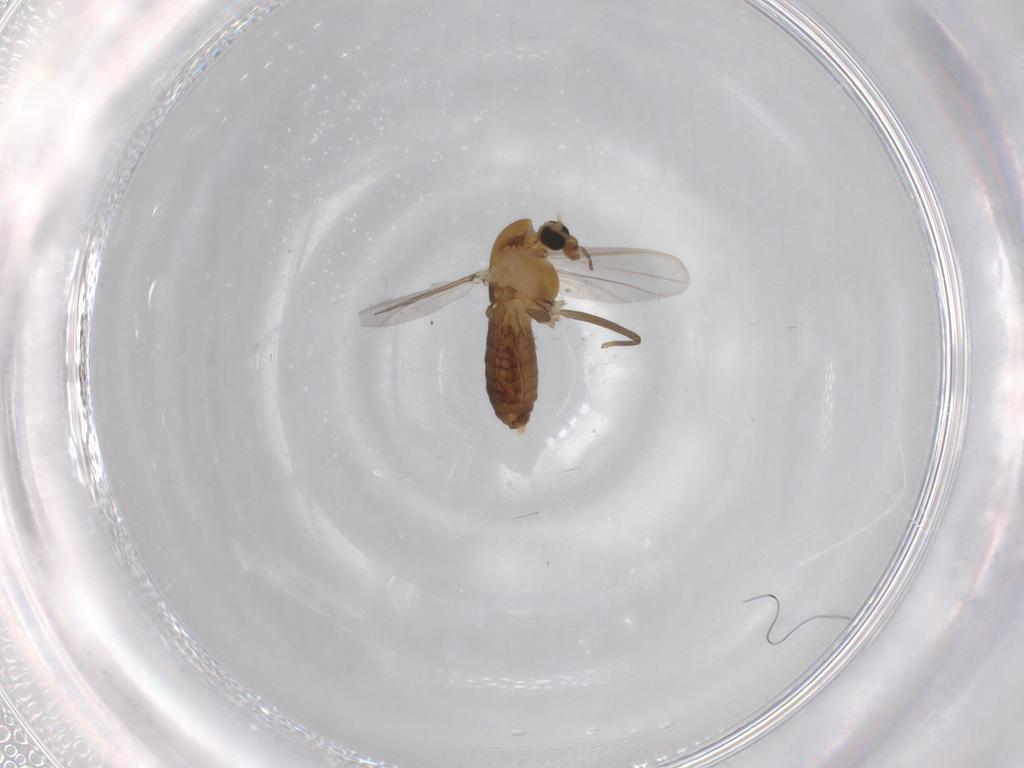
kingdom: Animalia
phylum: Arthropoda
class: Insecta
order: Diptera
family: Chironomidae
